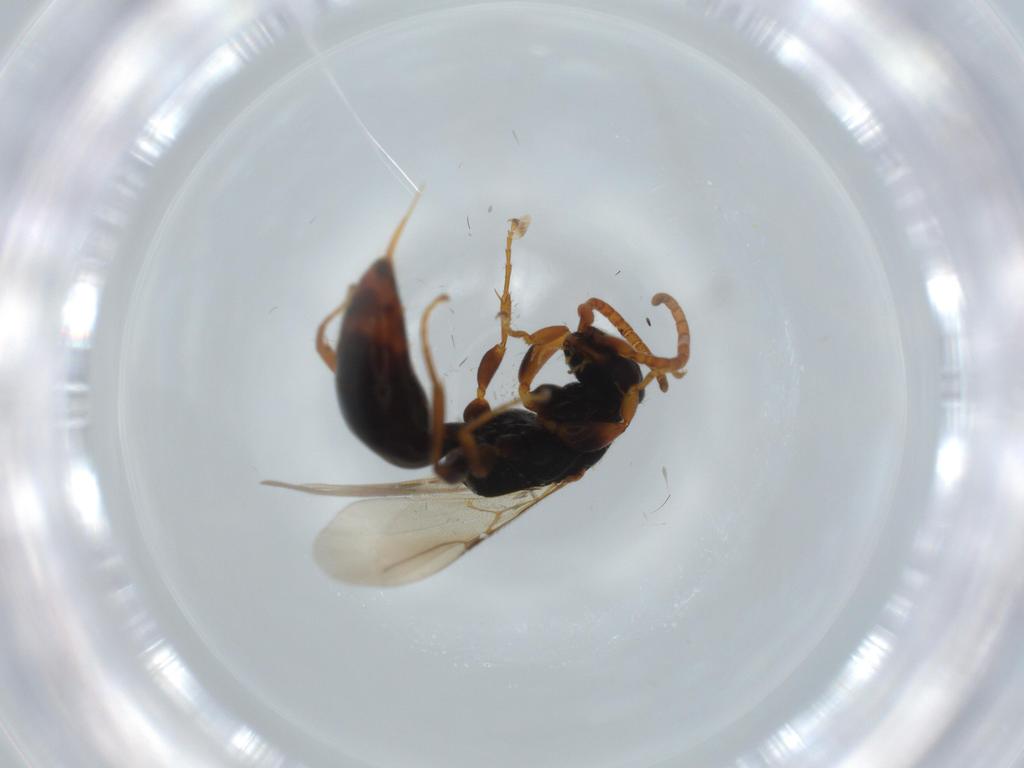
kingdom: Animalia
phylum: Arthropoda
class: Insecta
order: Hymenoptera
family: Bethylidae
